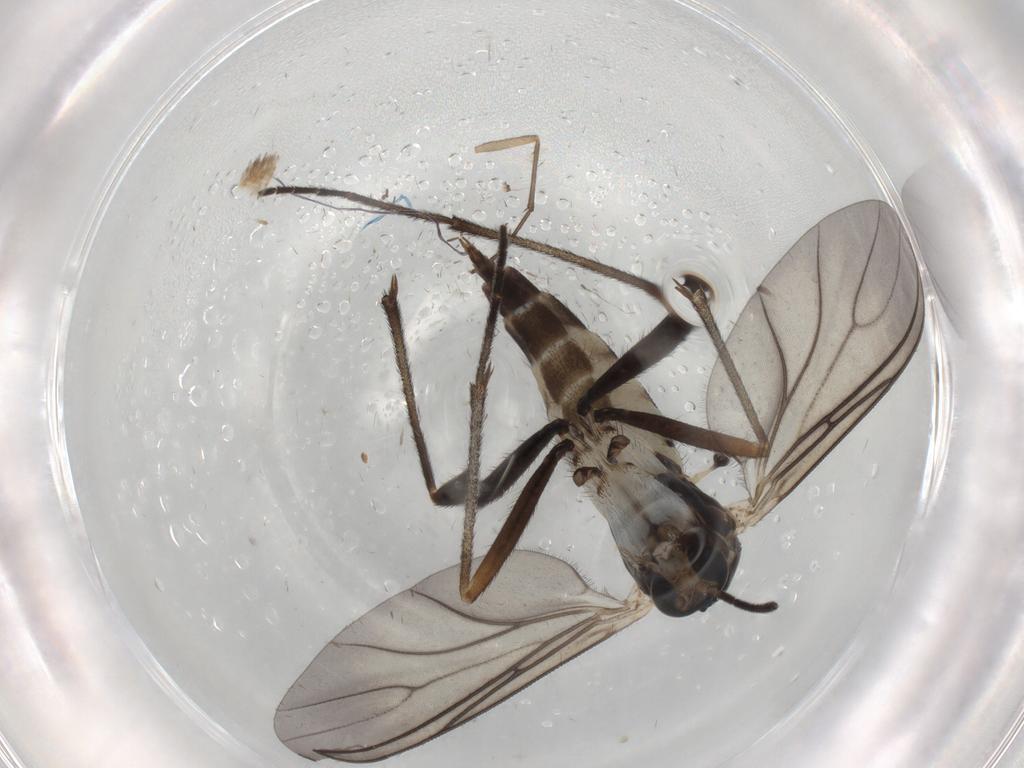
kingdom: Animalia
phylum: Arthropoda
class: Insecta
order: Diptera
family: Sciaridae
